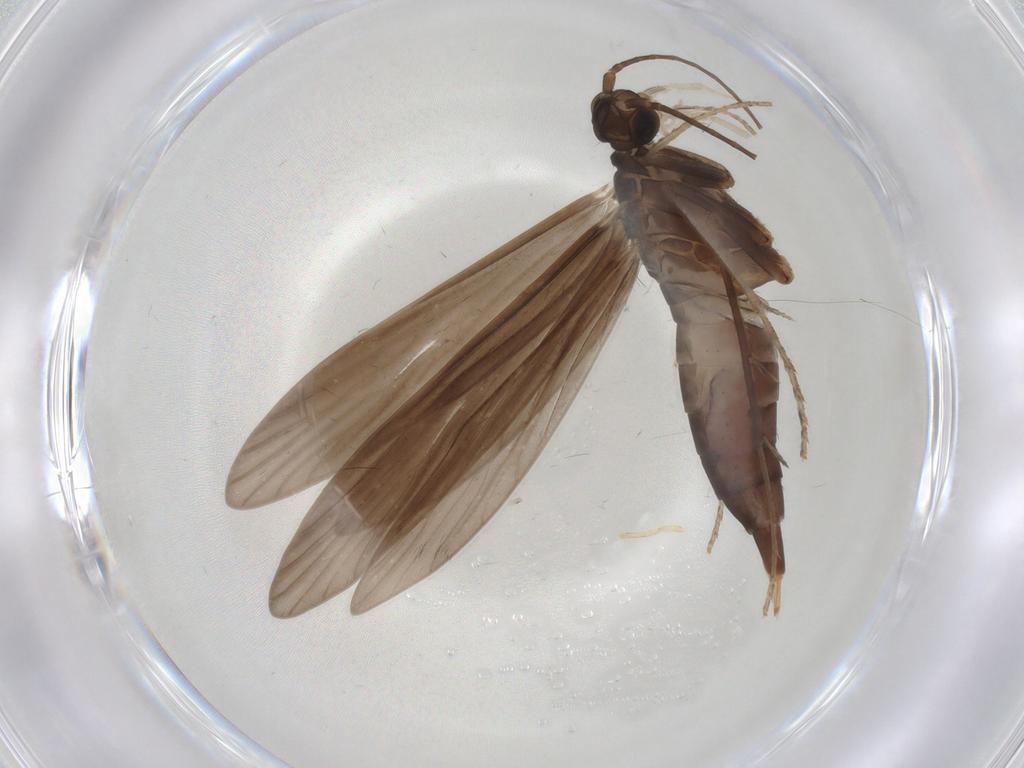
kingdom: Animalia
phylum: Arthropoda
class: Insecta
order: Trichoptera
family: Xiphocentronidae
